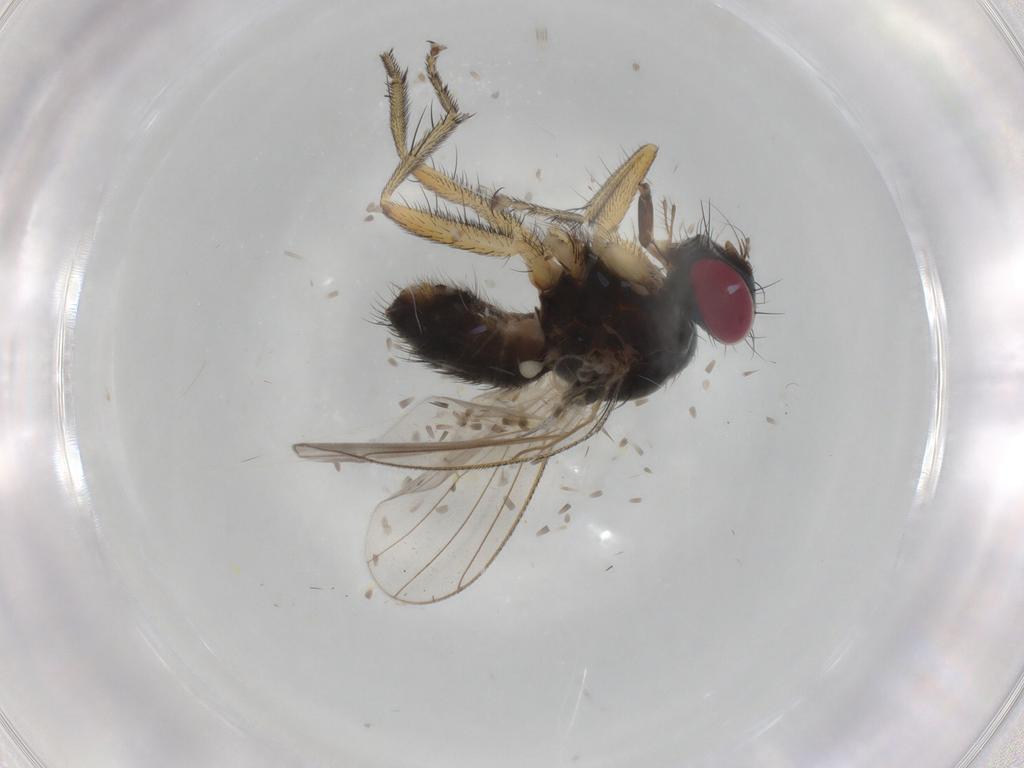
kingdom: Animalia
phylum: Arthropoda
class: Insecta
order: Diptera
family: Muscidae
